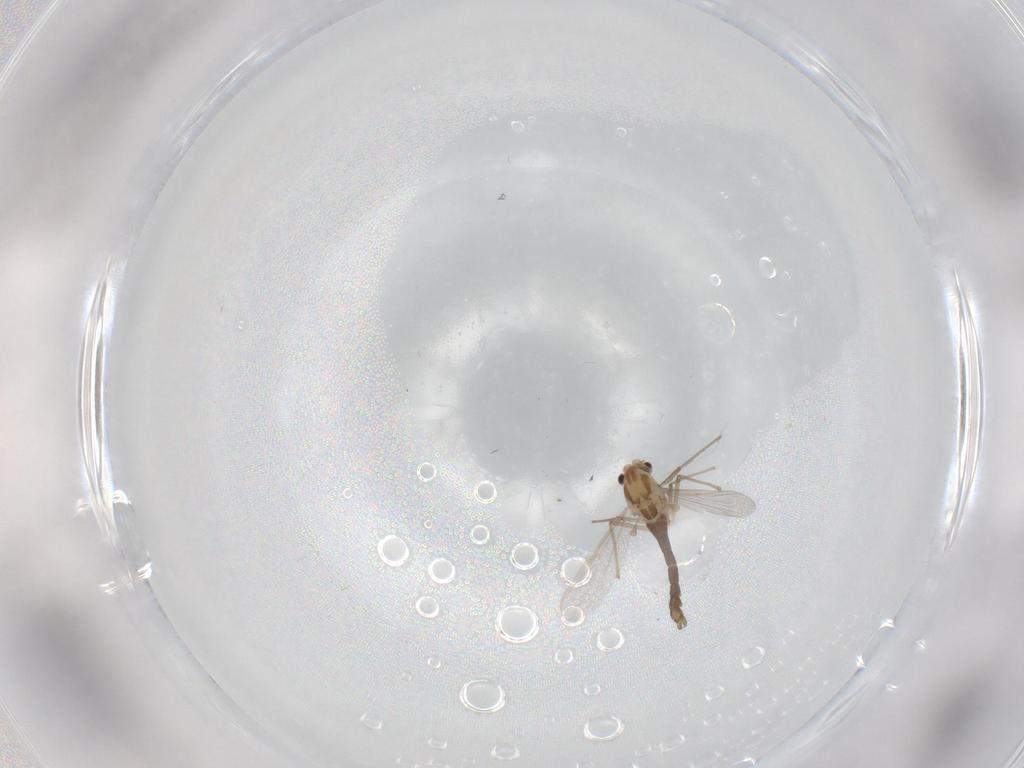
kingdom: Animalia
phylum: Arthropoda
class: Insecta
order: Diptera
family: Chironomidae
